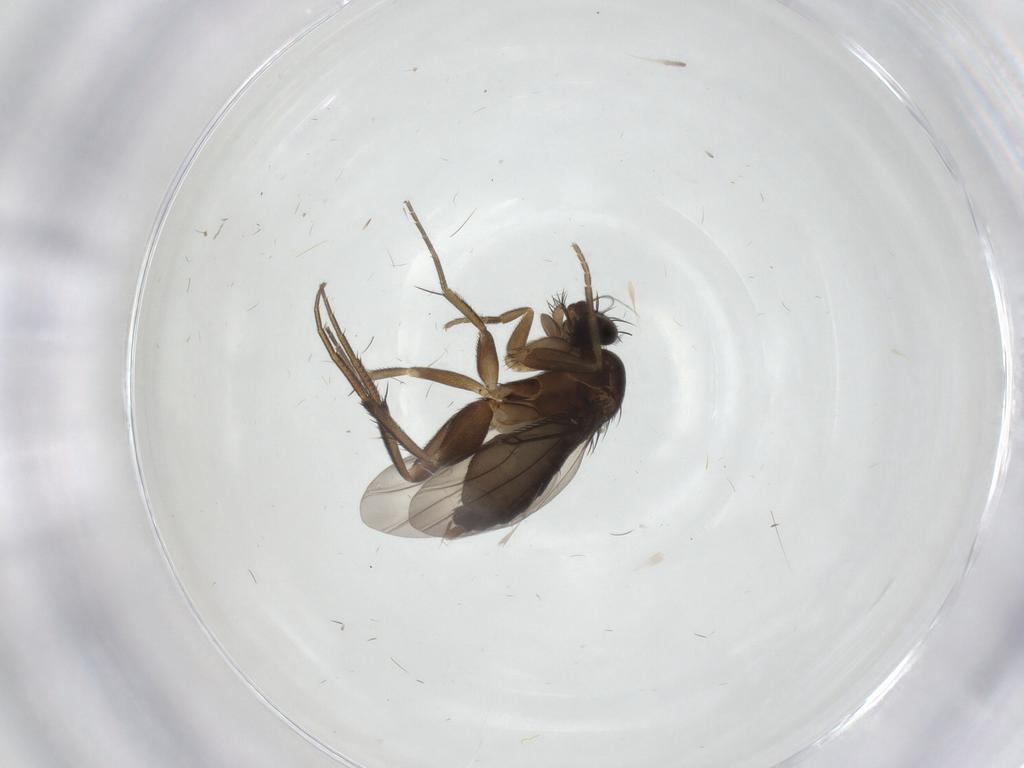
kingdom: Animalia
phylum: Arthropoda
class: Insecta
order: Diptera
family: Phoridae
